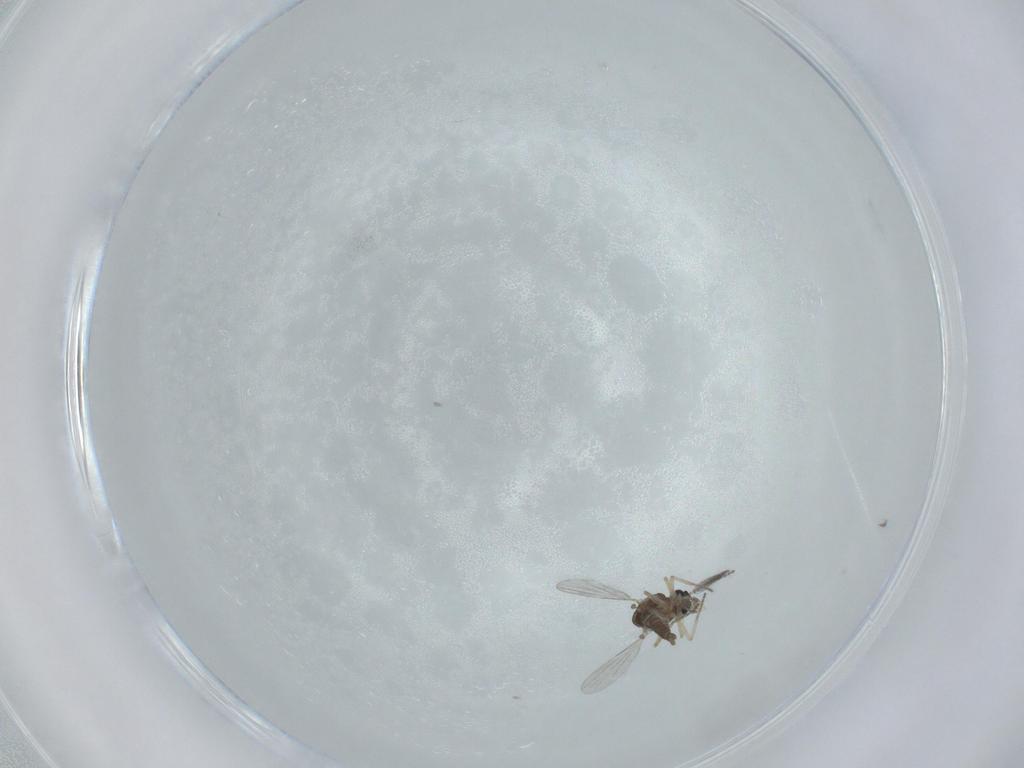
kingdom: Animalia
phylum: Arthropoda
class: Insecta
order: Diptera
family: Ceratopogonidae
